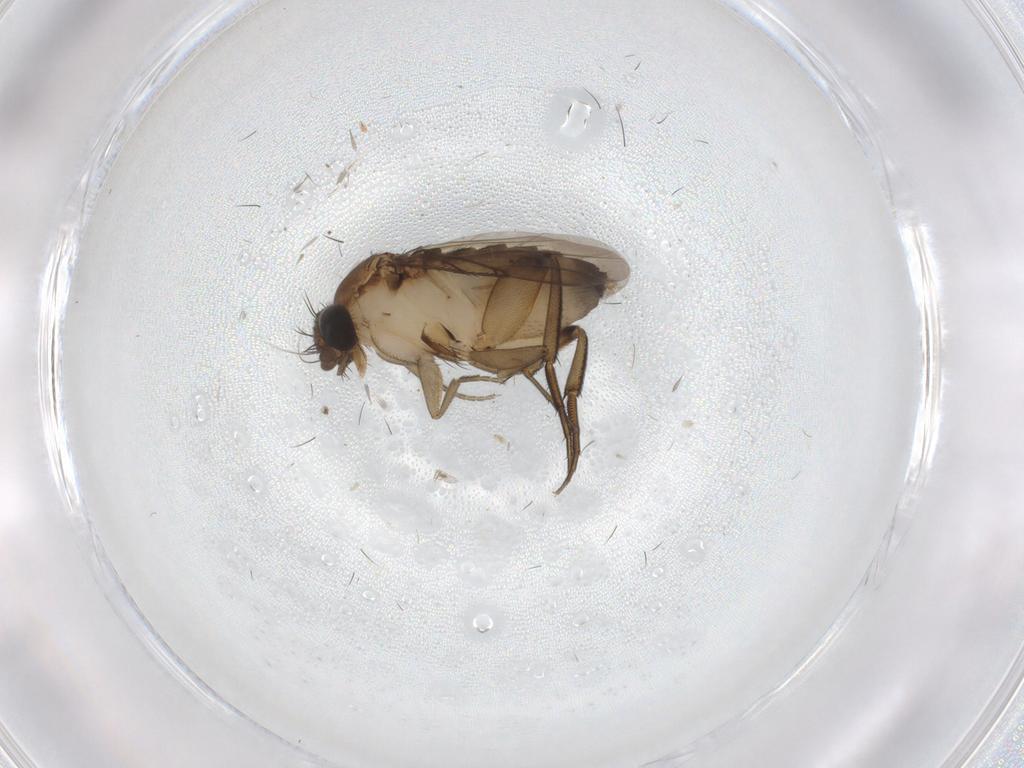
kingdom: Animalia
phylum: Arthropoda
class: Insecta
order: Diptera
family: Phoridae
